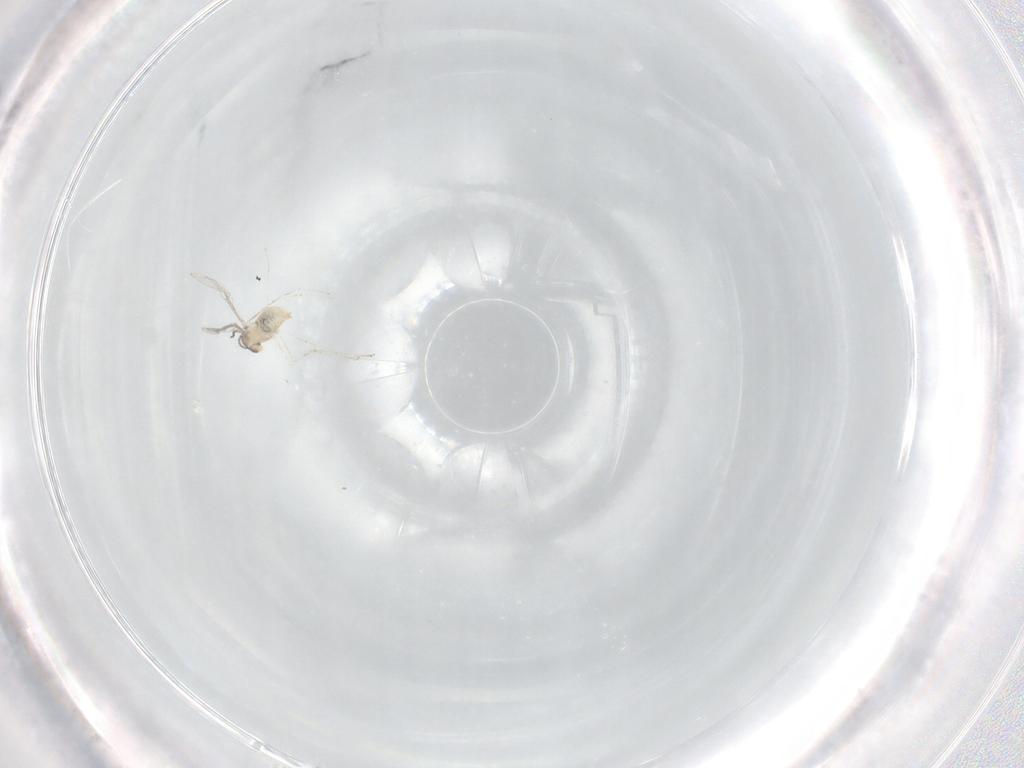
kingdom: Animalia
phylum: Arthropoda
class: Insecta
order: Diptera
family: Cecidomyiidae
